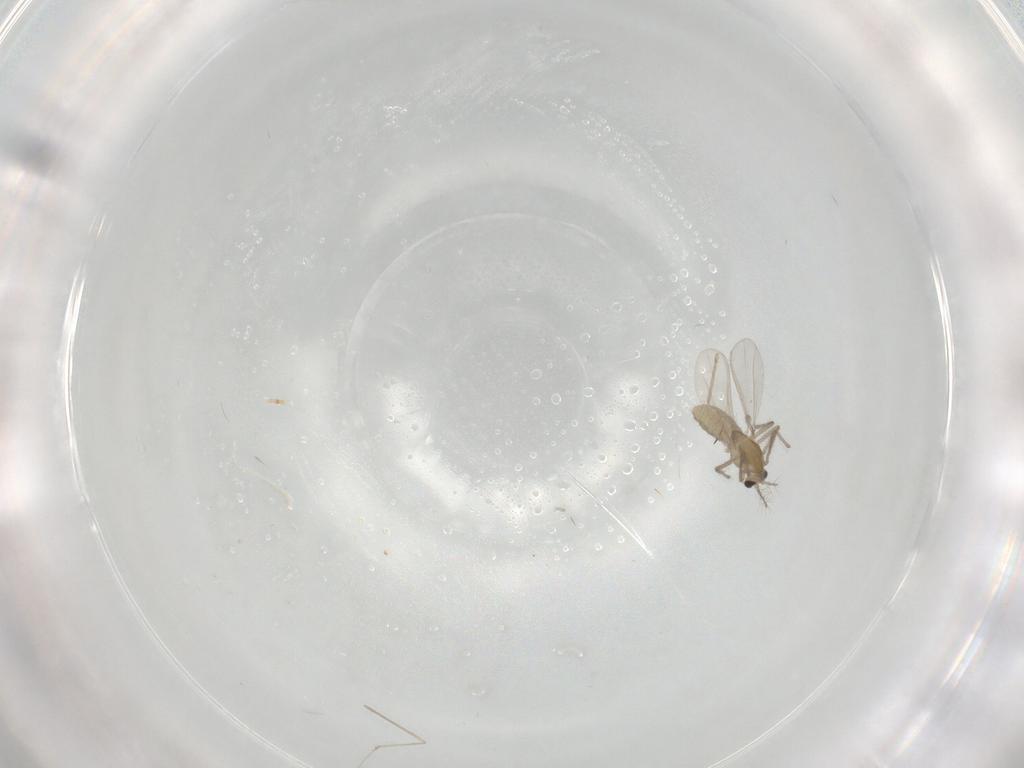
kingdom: Animalia
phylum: Arthropoda
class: Insecta
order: Diptera
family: Chironomidae
